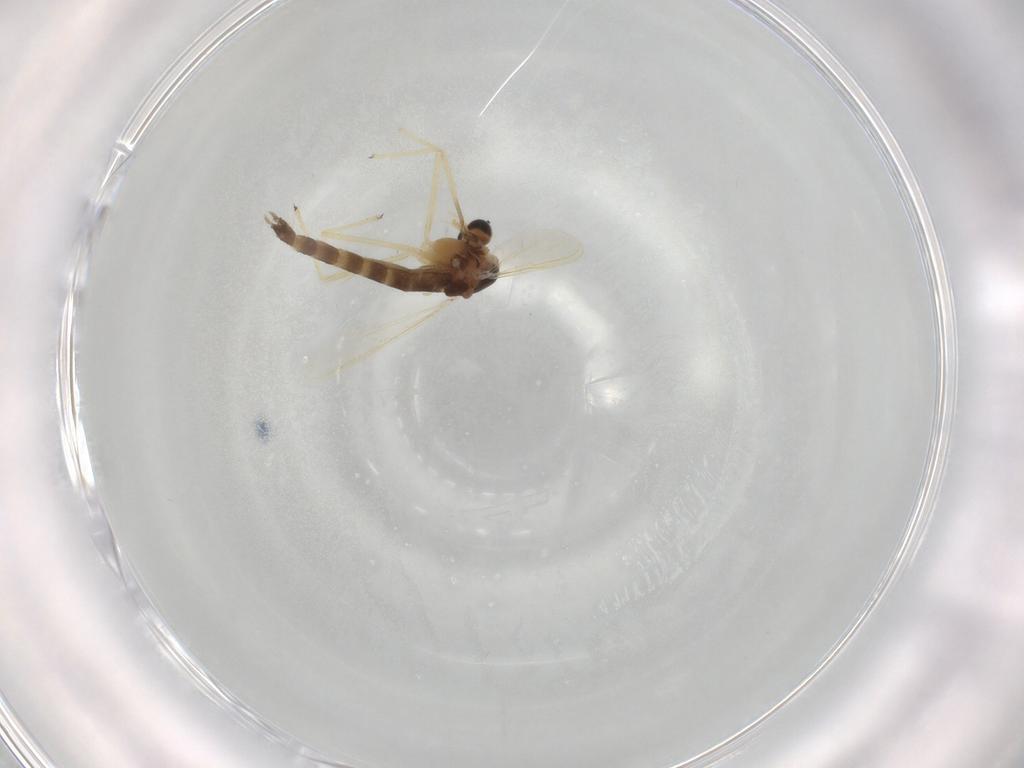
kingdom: Animalia
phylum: Arthropoda
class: Insecta
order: Diptera
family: Chironomidae
